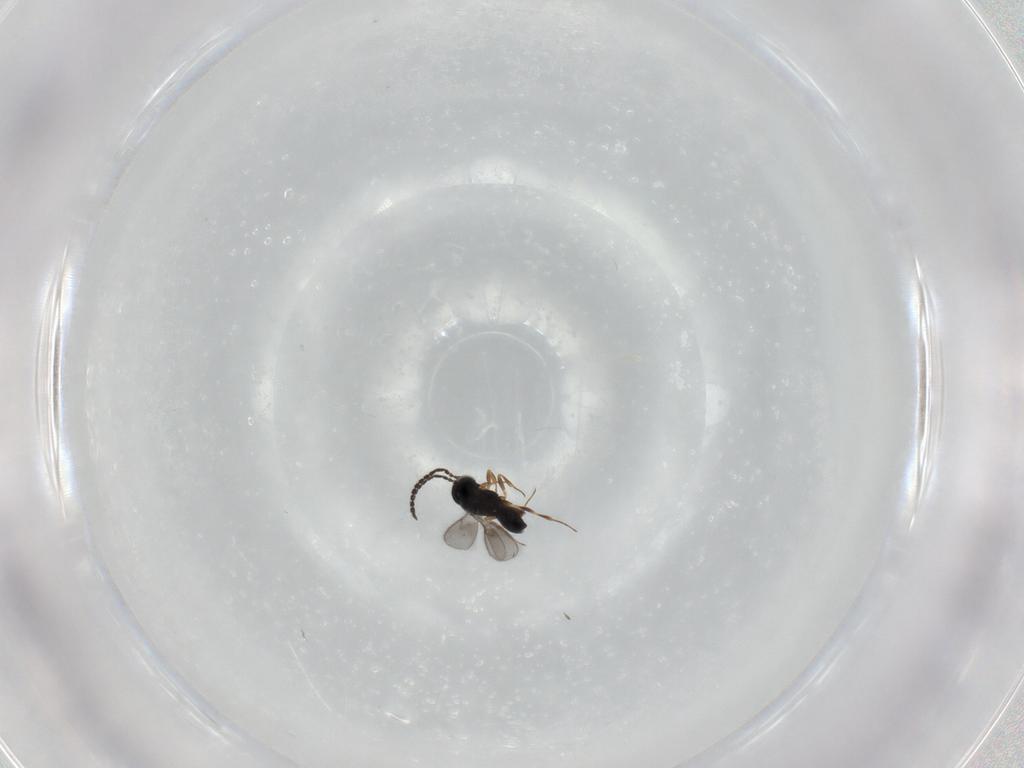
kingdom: Animalia
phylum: Arthropoda
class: Insecta
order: Hymenoptera
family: Scelionidae
